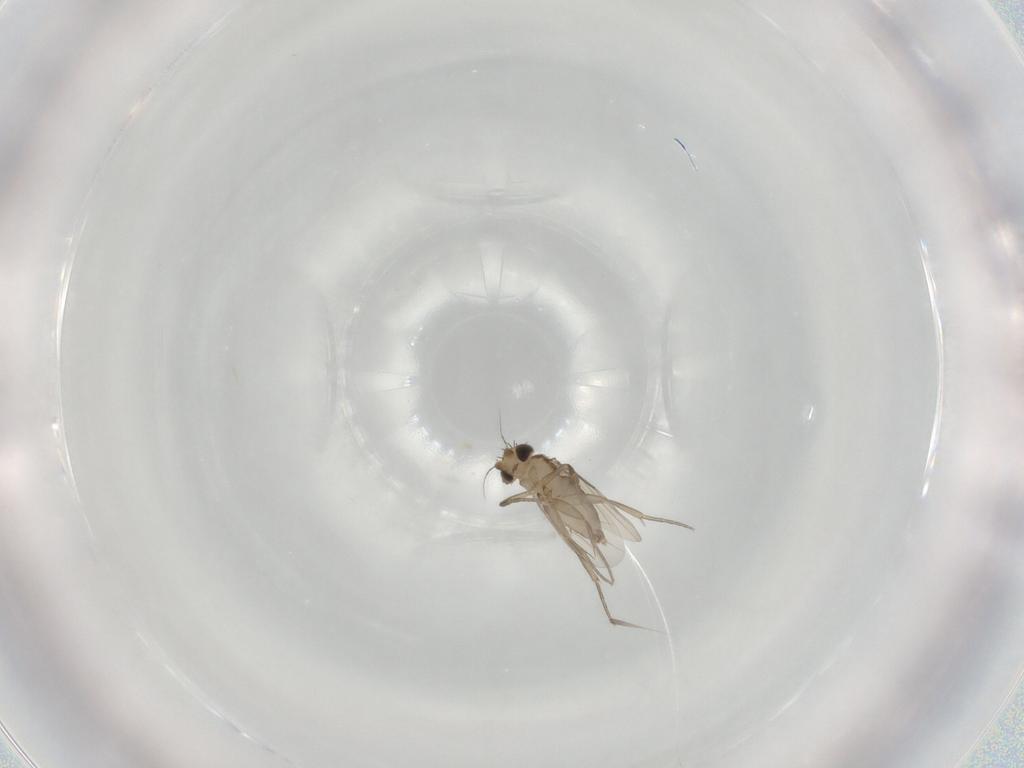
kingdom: Animalia
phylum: Arthropoda
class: Insecta
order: Diptera
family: Phoridae
